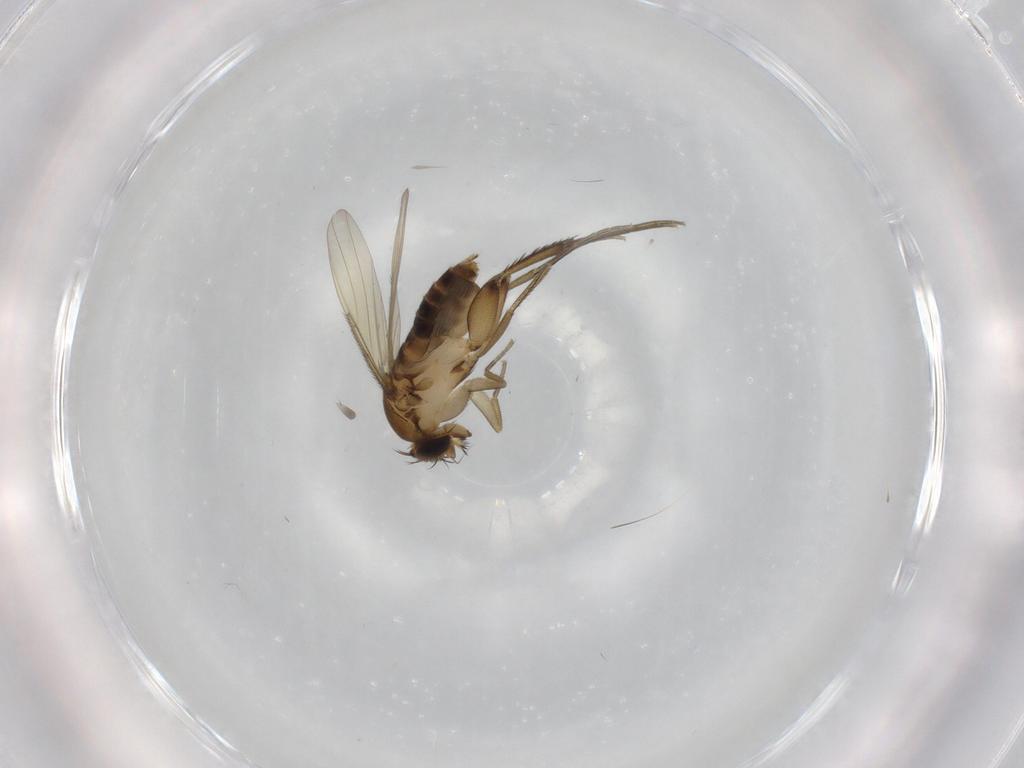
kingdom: Animalia
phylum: Arthropoda
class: Insecta
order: Diptera
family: Phoridae
